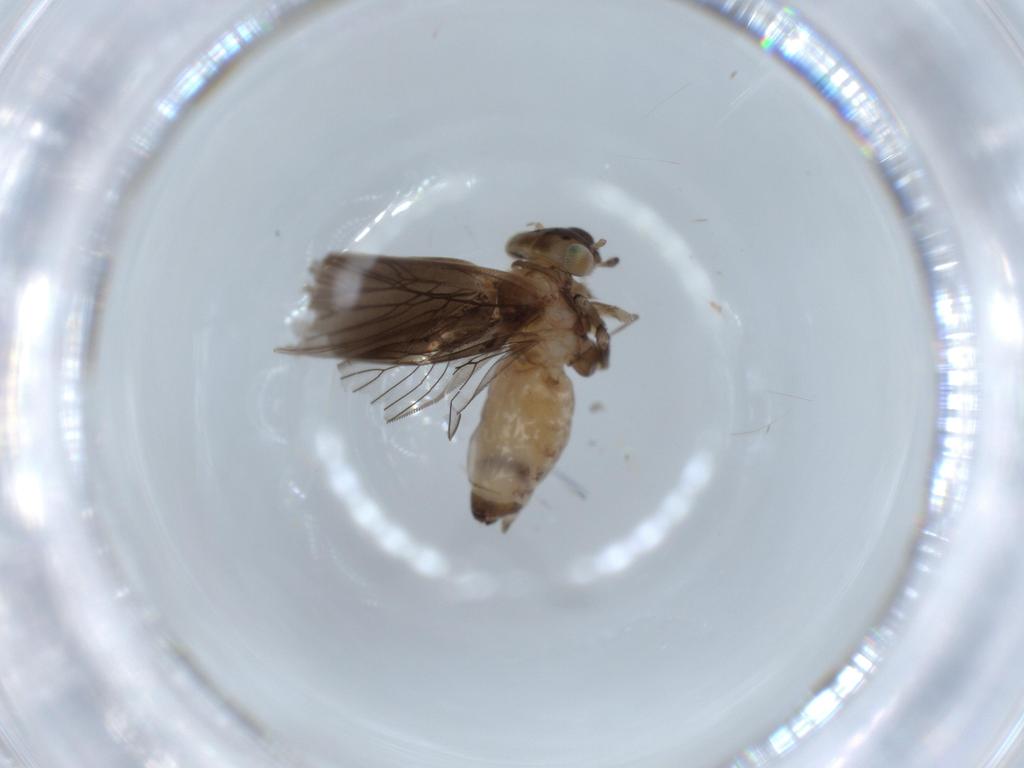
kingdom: Animalia
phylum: Arthropoda
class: Insecta
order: Psocodea
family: Lepidopsocidae
